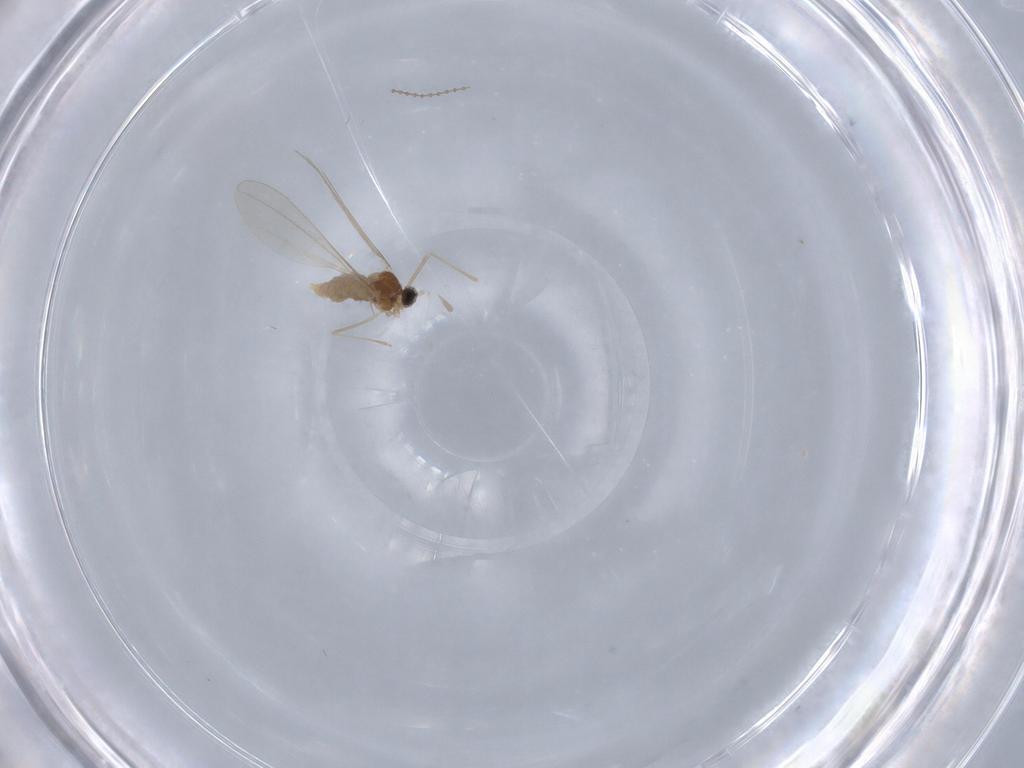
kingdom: Animalia
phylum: Arthropoda
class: Insecta
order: Diptera
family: Cecidomyiidae
